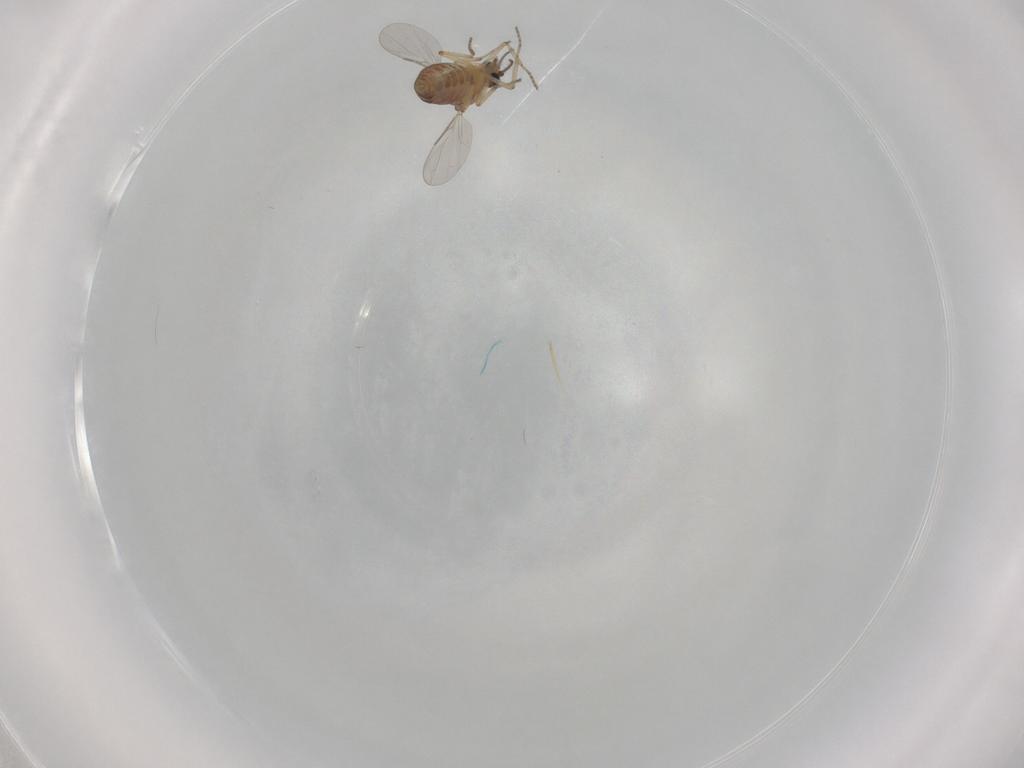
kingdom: Animalia
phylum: Arthropoda
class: Insecta
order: Diptera
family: Ceratopogonidae
